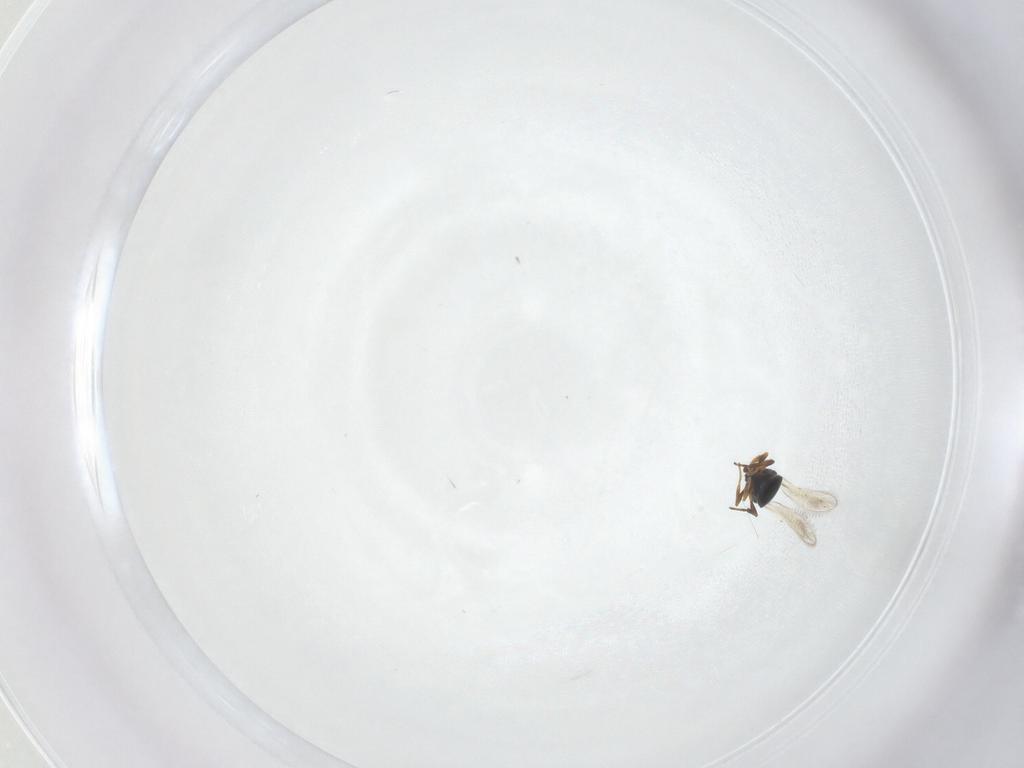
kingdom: Animalia
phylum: Arthropoda
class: Insecta
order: Hymenoptera
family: Platygastridae
